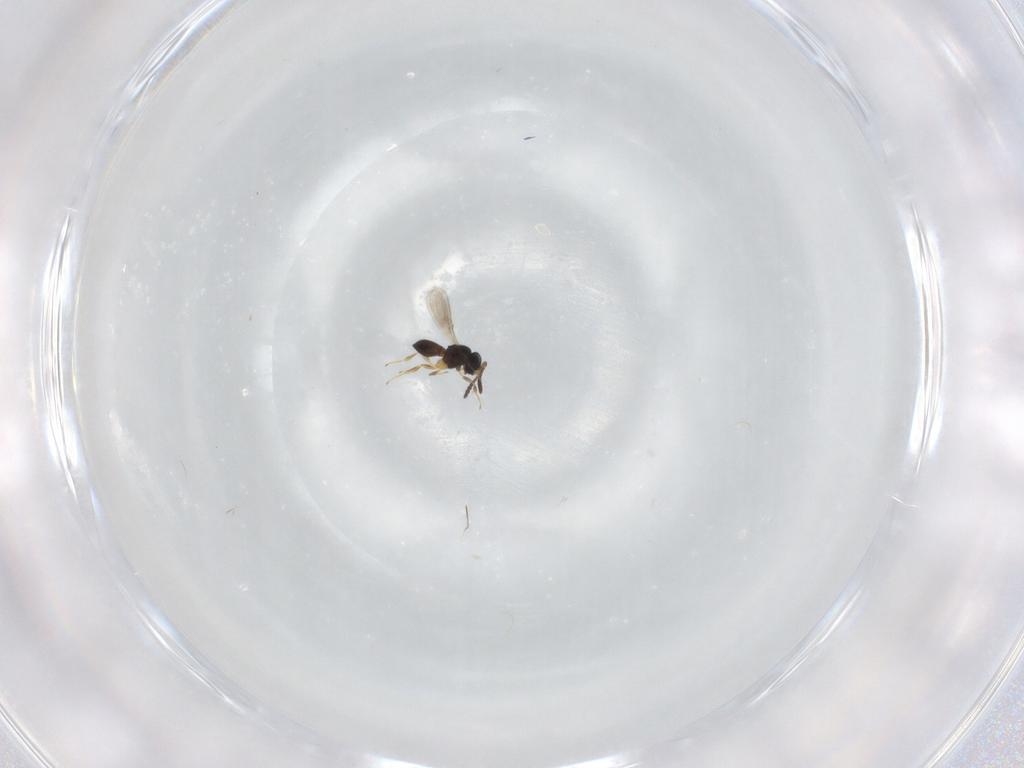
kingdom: Animalia
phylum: Arthropoda
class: Insecta
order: Hymenoptera
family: Scelionidae
